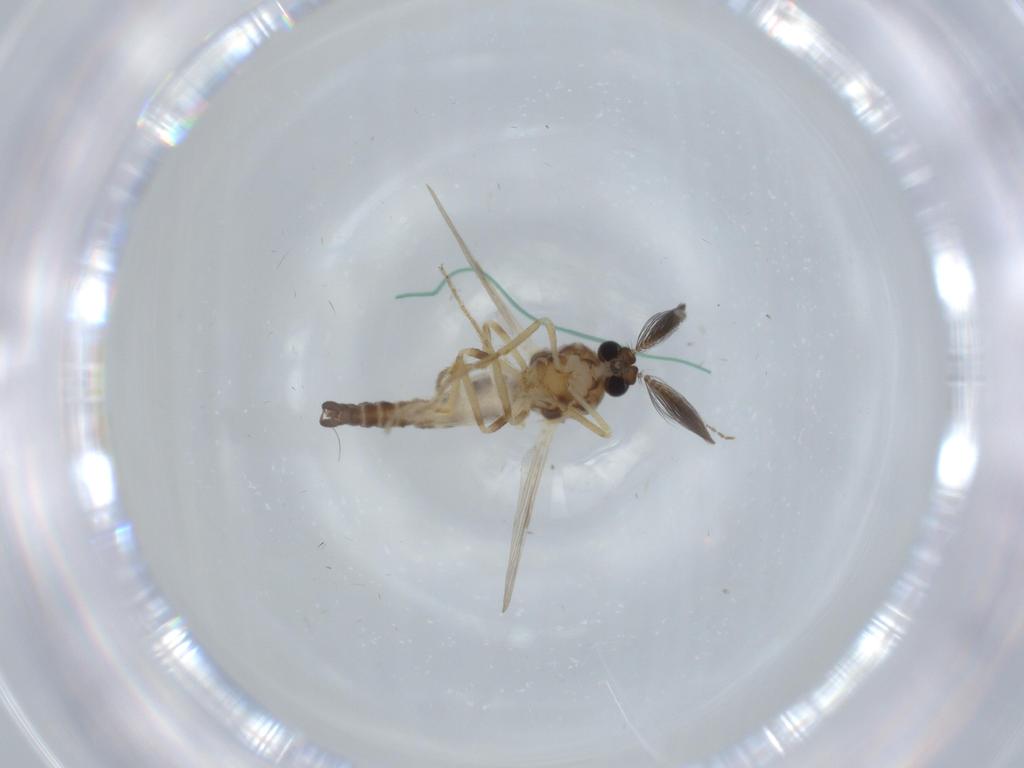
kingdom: Animalia
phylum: Arthropoda
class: Insecta
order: Diptera
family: Ceratopogonidae
